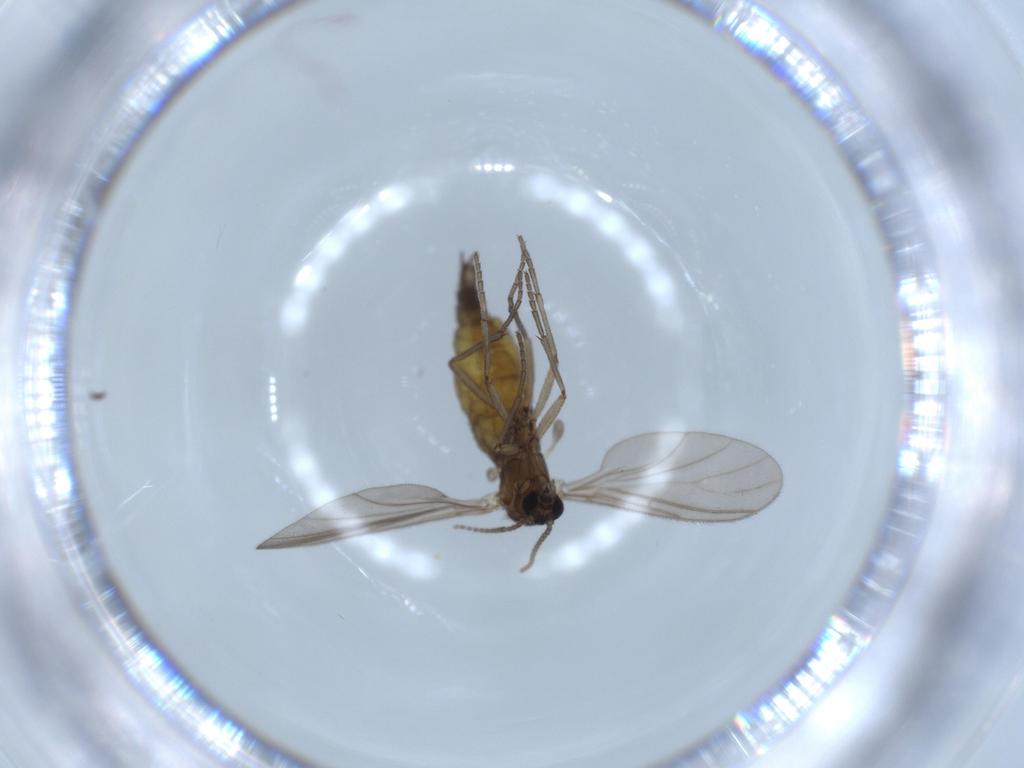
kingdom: Animalia
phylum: Arthropoda
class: Insecta
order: Diptera
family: Sciaridae
